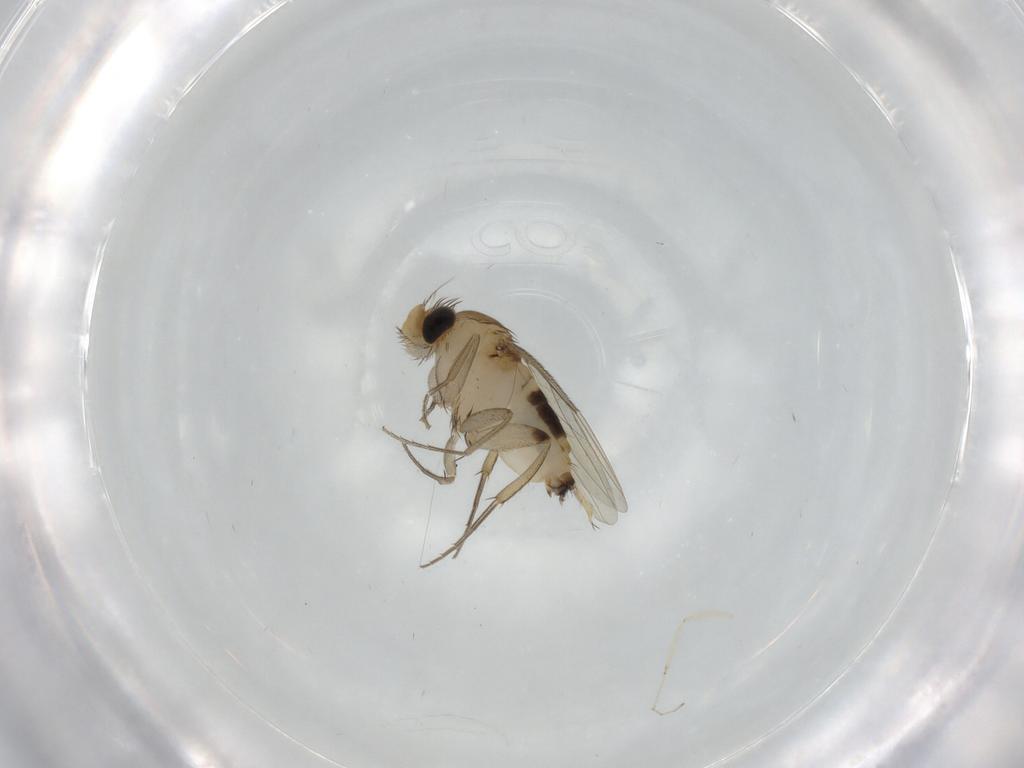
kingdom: Animalia
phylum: Arthropoda
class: Insecta
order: Diptera
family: Phoridae
